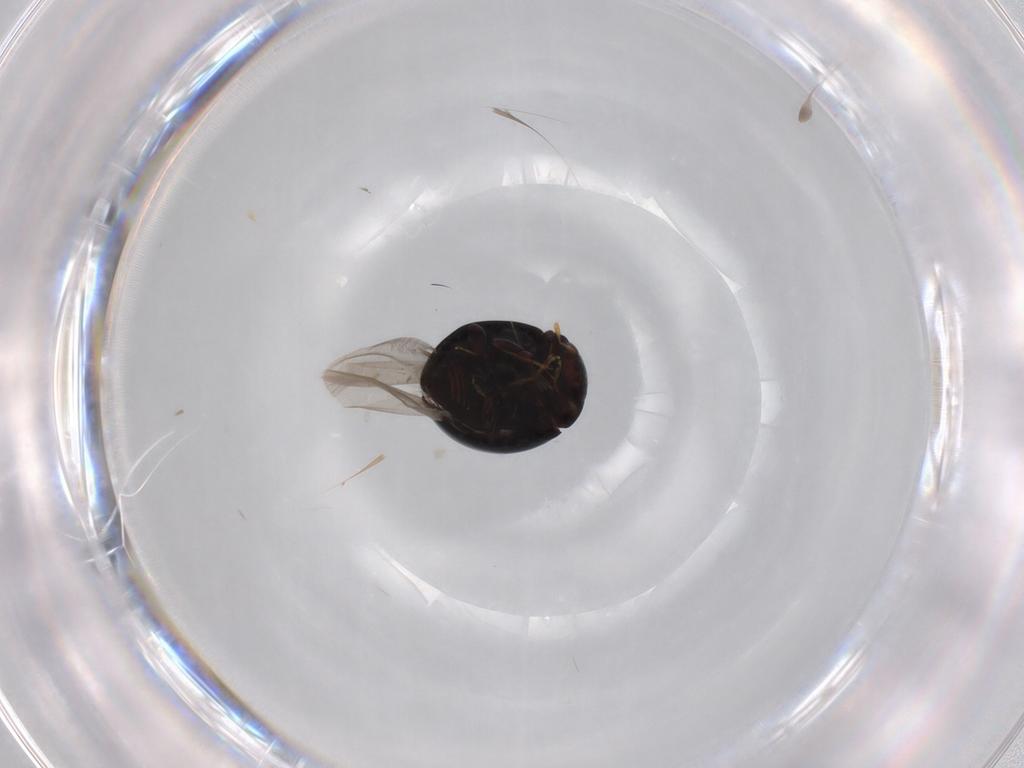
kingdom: Animalia
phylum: Arthropoda
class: Insecta
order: Coleoptera
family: Coccinellidae
